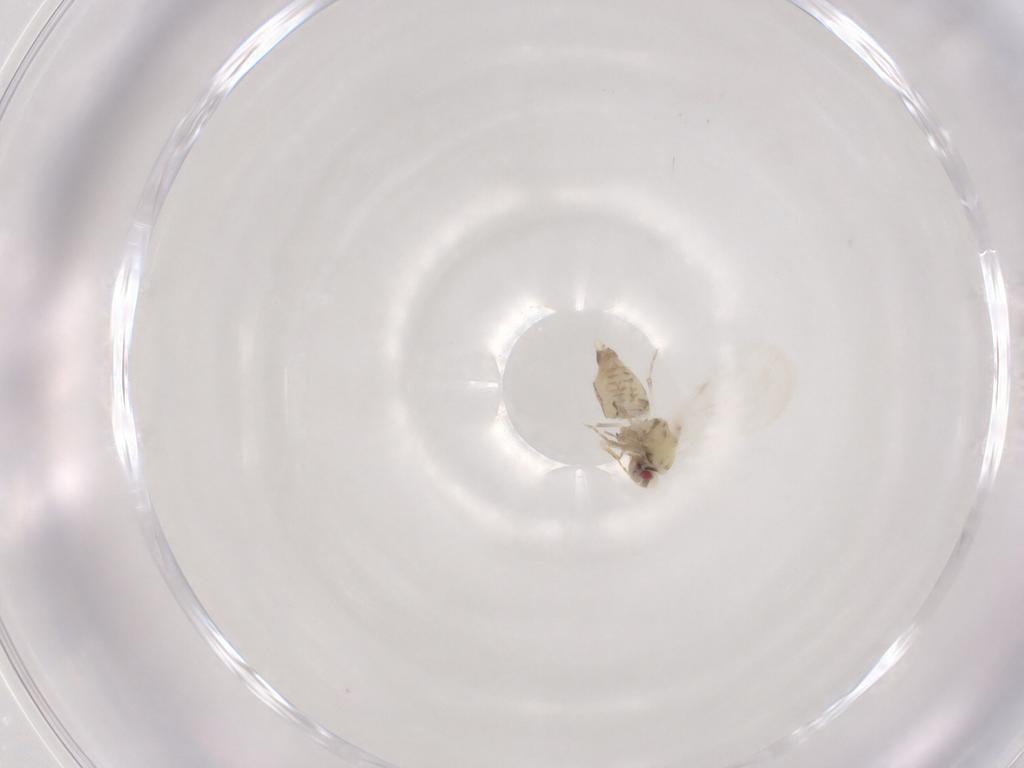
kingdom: Animalia
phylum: Arthropoda
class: Insecta
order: Hemiptera
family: Aleyrodidae
